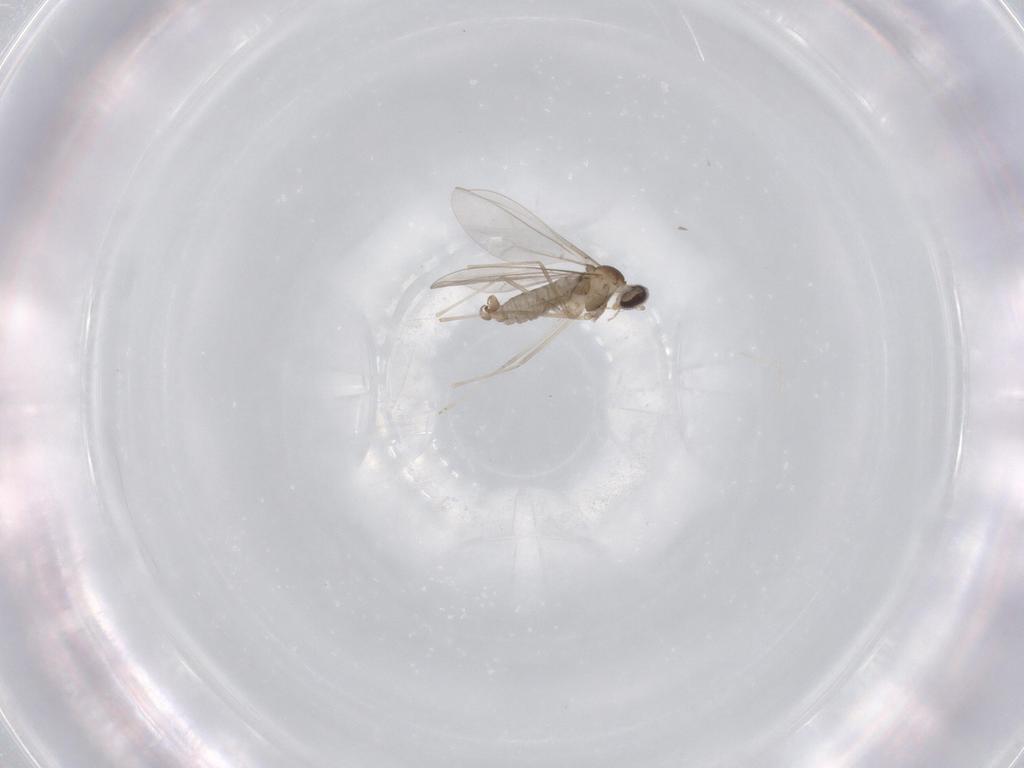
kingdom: Animalia
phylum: Arthropoda
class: Insecta
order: Diptera
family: Cecidomyiidae
